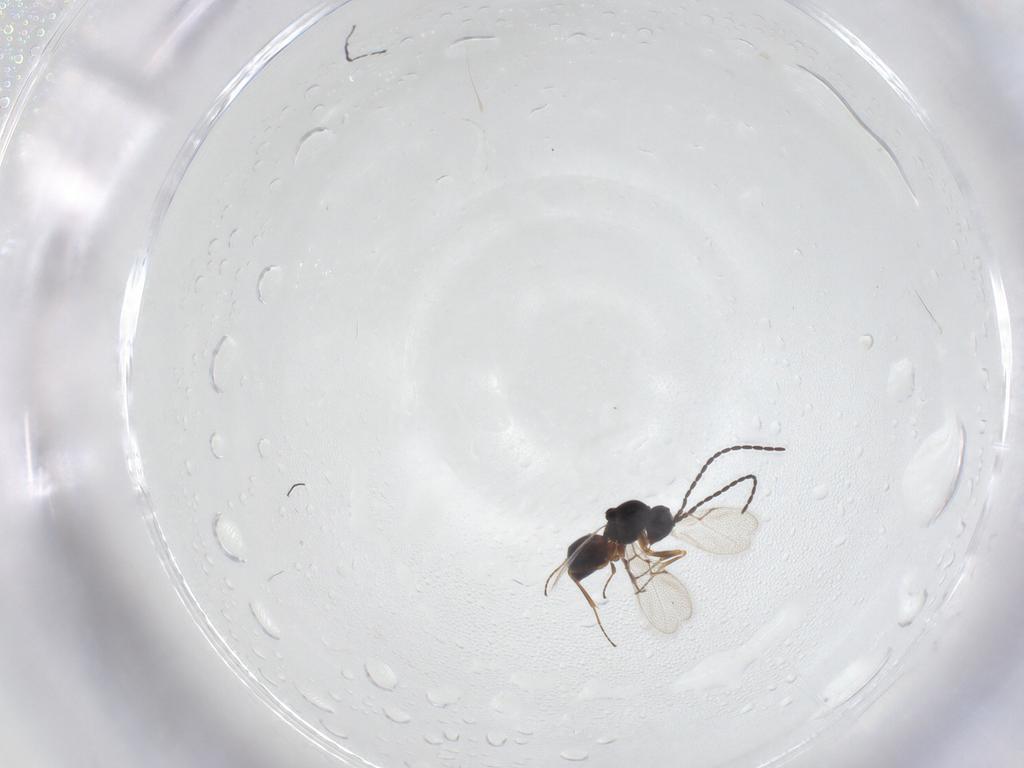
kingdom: Animalia
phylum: Arthropoda
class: Insecta
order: Hymenoptera
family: Figitidae
